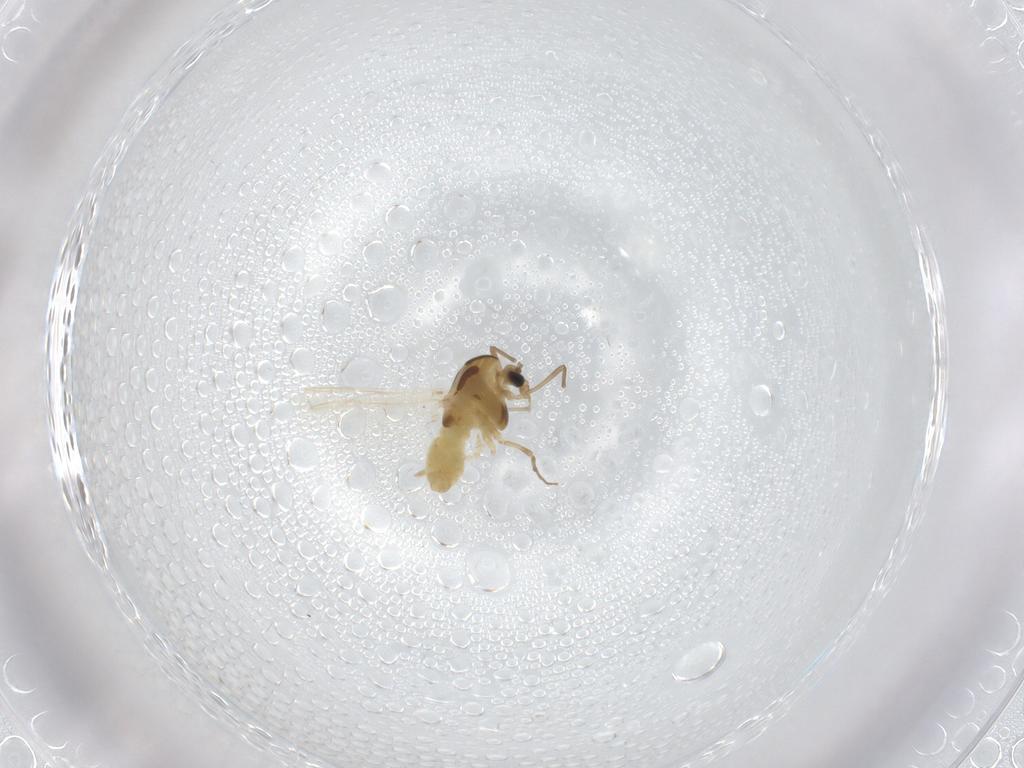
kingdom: Animalia
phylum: Arthropoda
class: Insecta
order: Diptera
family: Chironomidae
